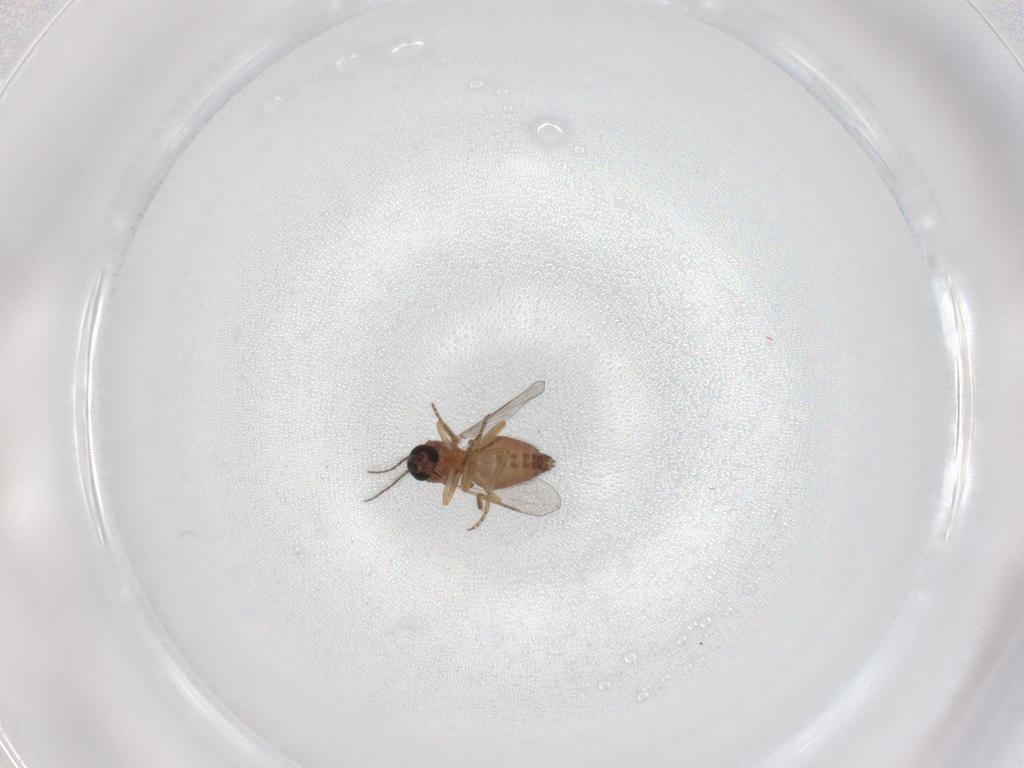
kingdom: Animalia
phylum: Arthropoda
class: Insecta
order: Diptera
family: Ceratopogonidae
